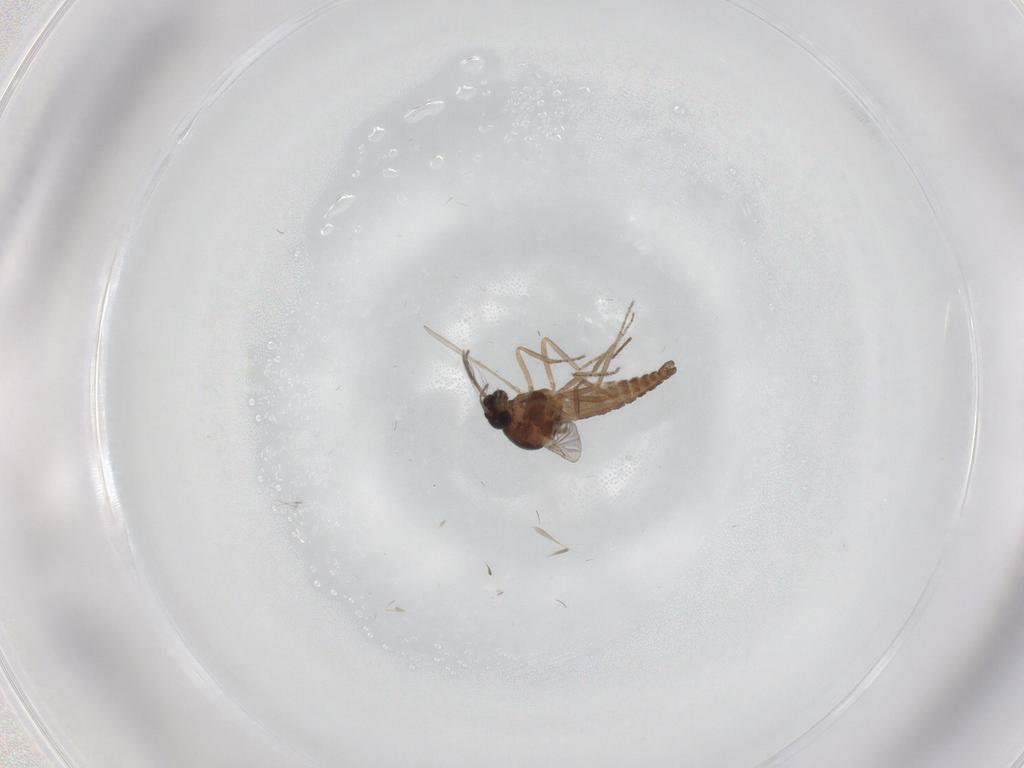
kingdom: Animalia
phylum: Arthropoda
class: Insecta
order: Diptera
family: Ceratopogonidae
